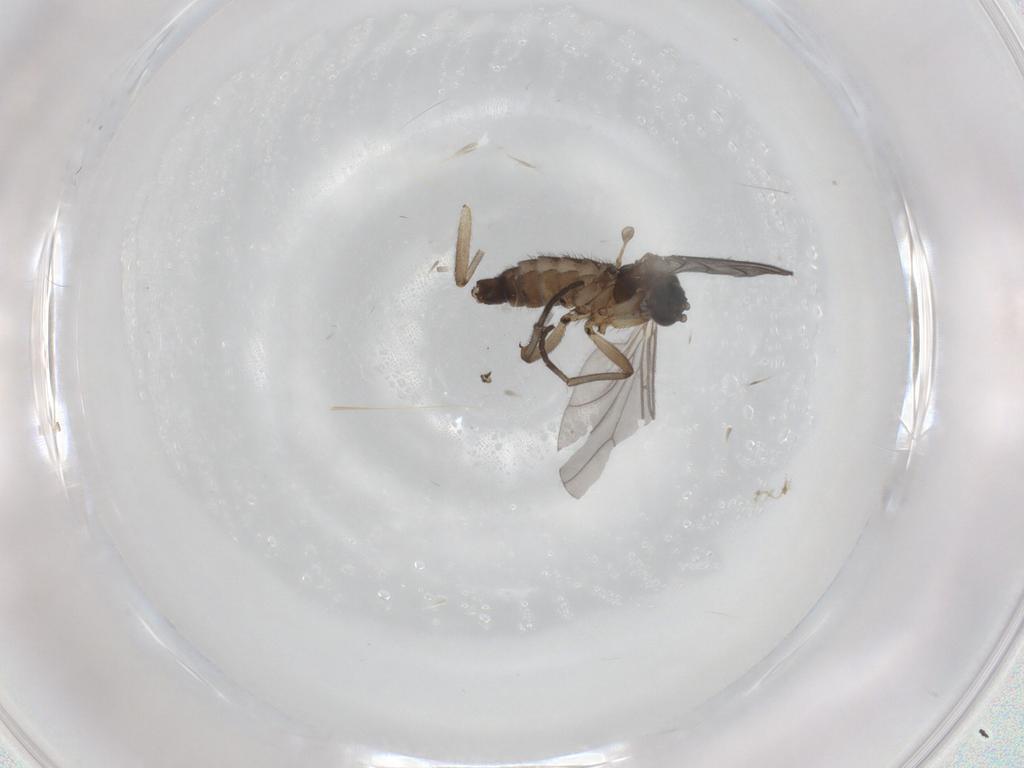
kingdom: Animalia
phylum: Arthropoda
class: Insecta
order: Diptera
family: Sciaridae
